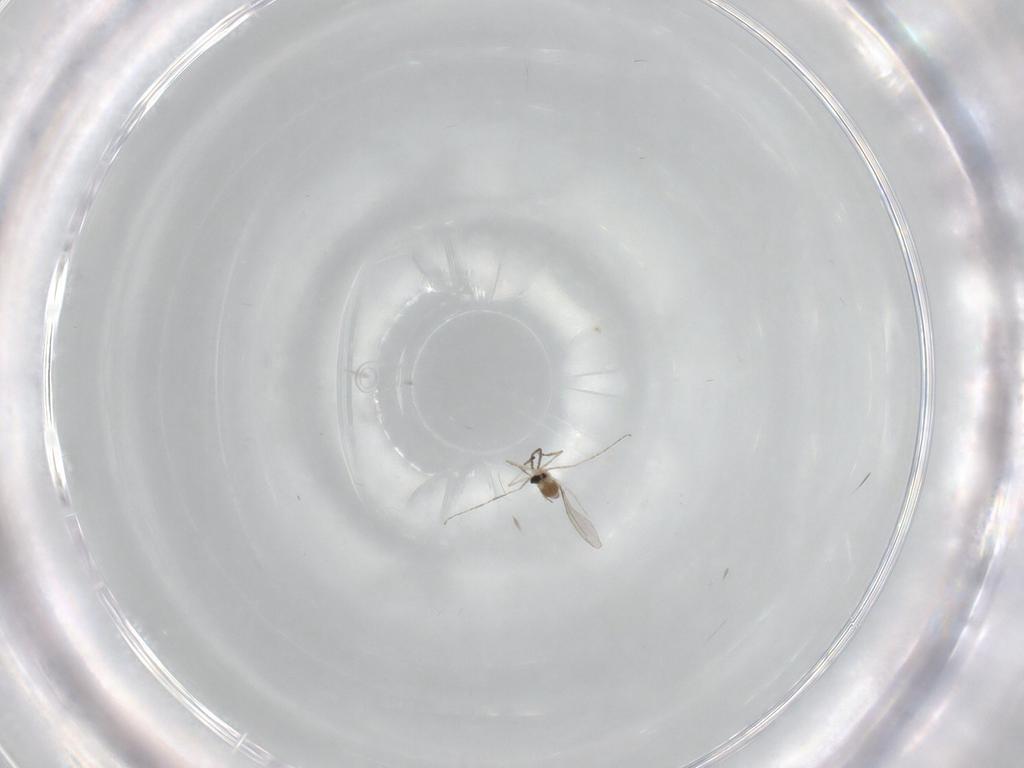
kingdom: Animalia
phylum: Arthropoda
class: Insecta
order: Diptera
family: Cecidomyiidae
